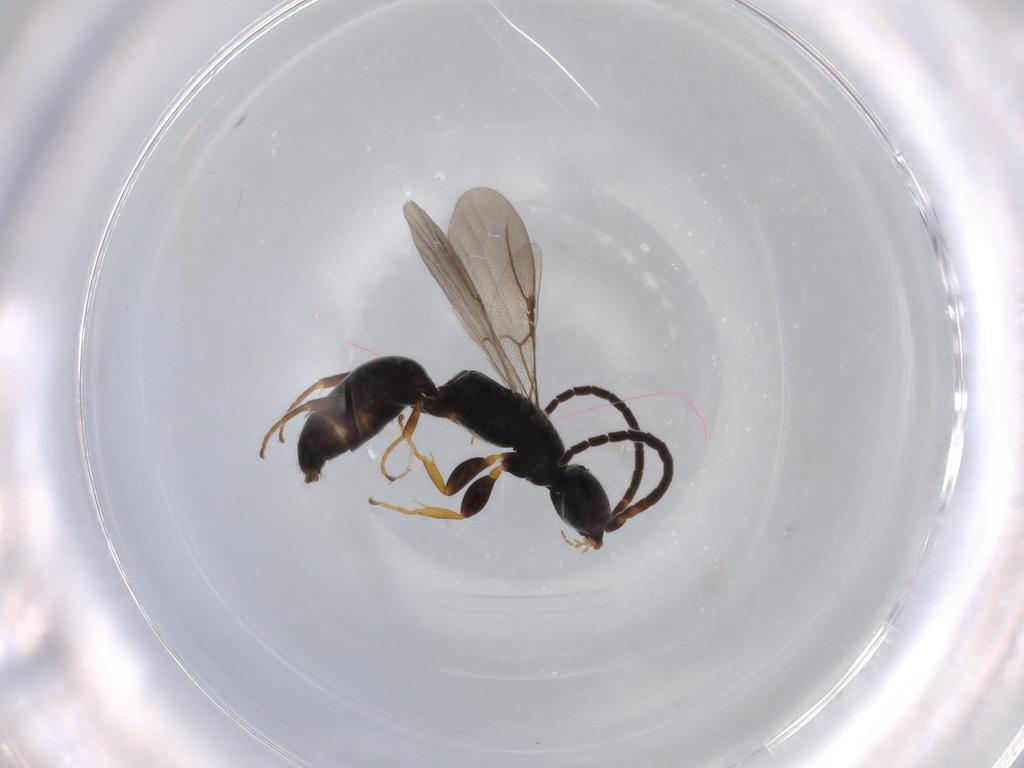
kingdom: Animalia
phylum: Arthropoda
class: Insecta
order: Hymenoptera
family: Bethylidae
